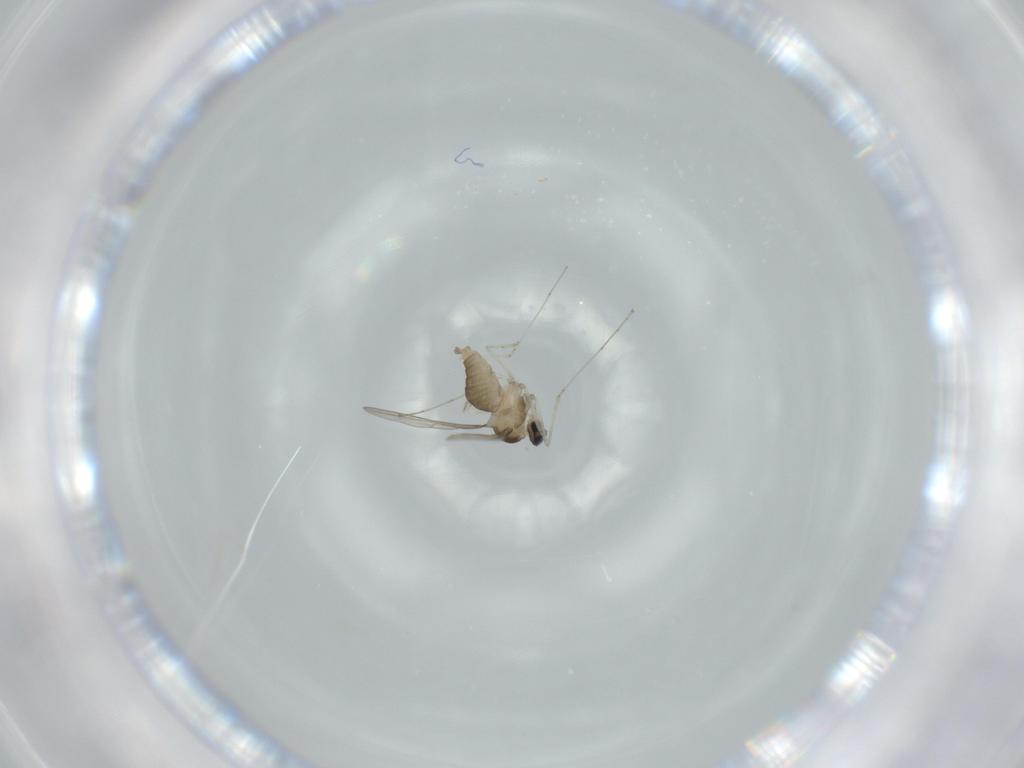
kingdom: Animalia
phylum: Arthropoda
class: Insecta
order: Diptera
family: Cecidomyiidae
